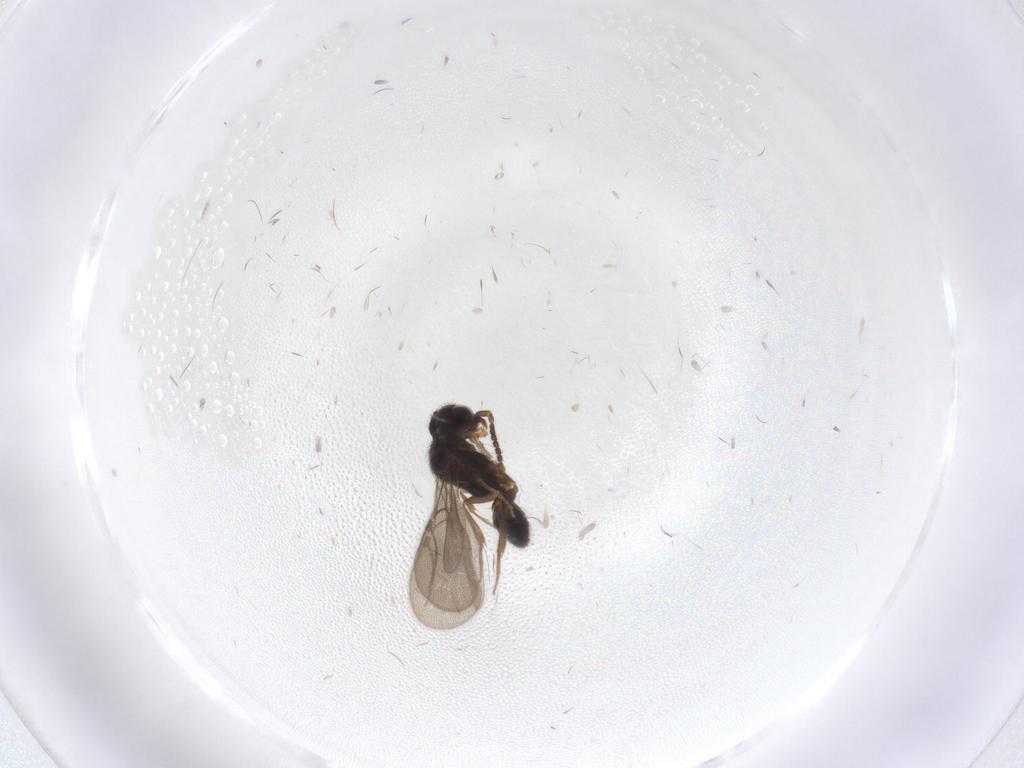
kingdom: Animalia
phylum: Arthropoda
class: Insecta
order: Hymenoptera
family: Bethylidae
